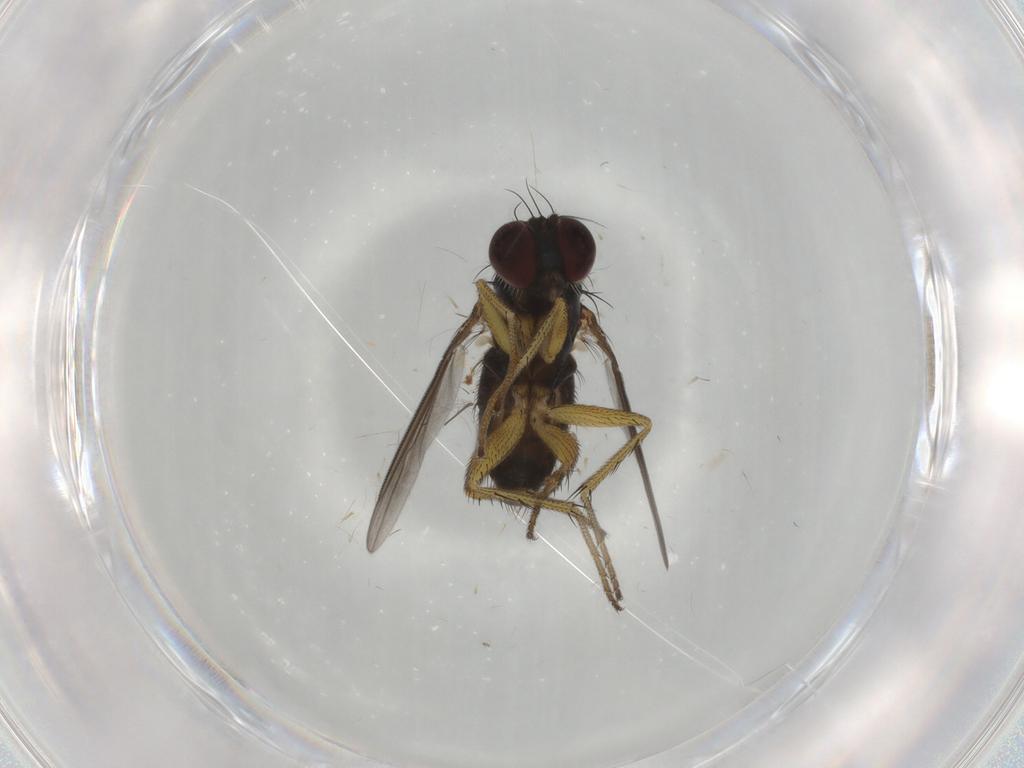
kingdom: Animalia
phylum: Arthropoda
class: Insecta
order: Diptera
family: Dolichopodidae
